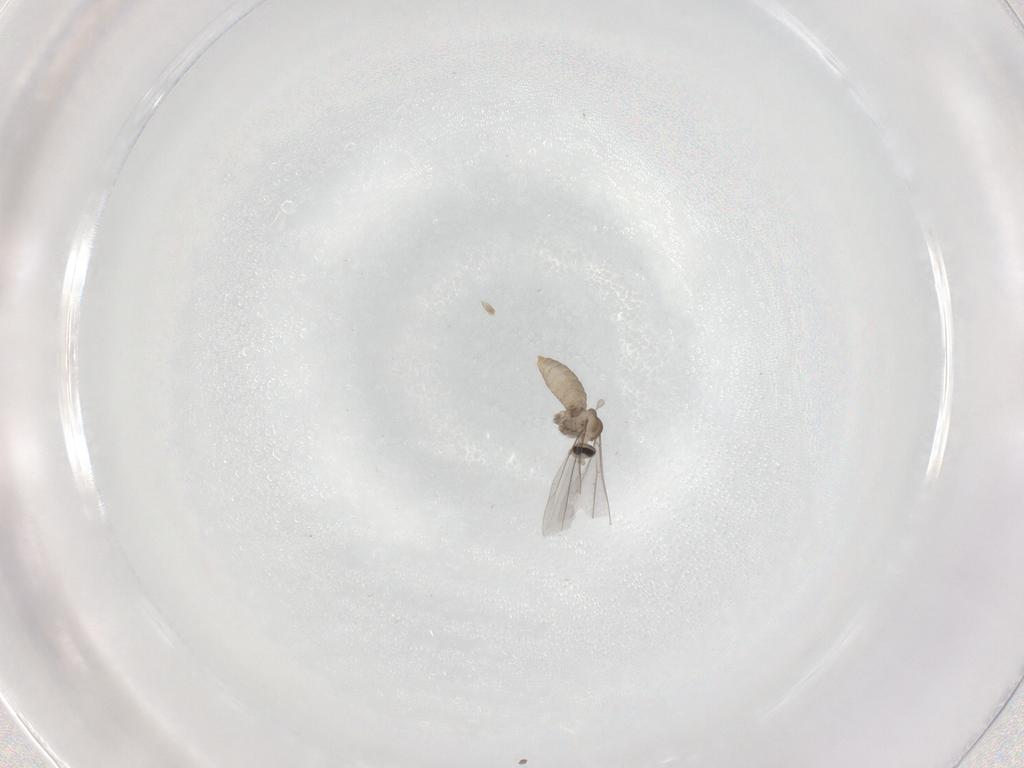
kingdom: Animalia
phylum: Arthropoda
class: Insecta
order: Diptera
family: Cecidomyiidae
